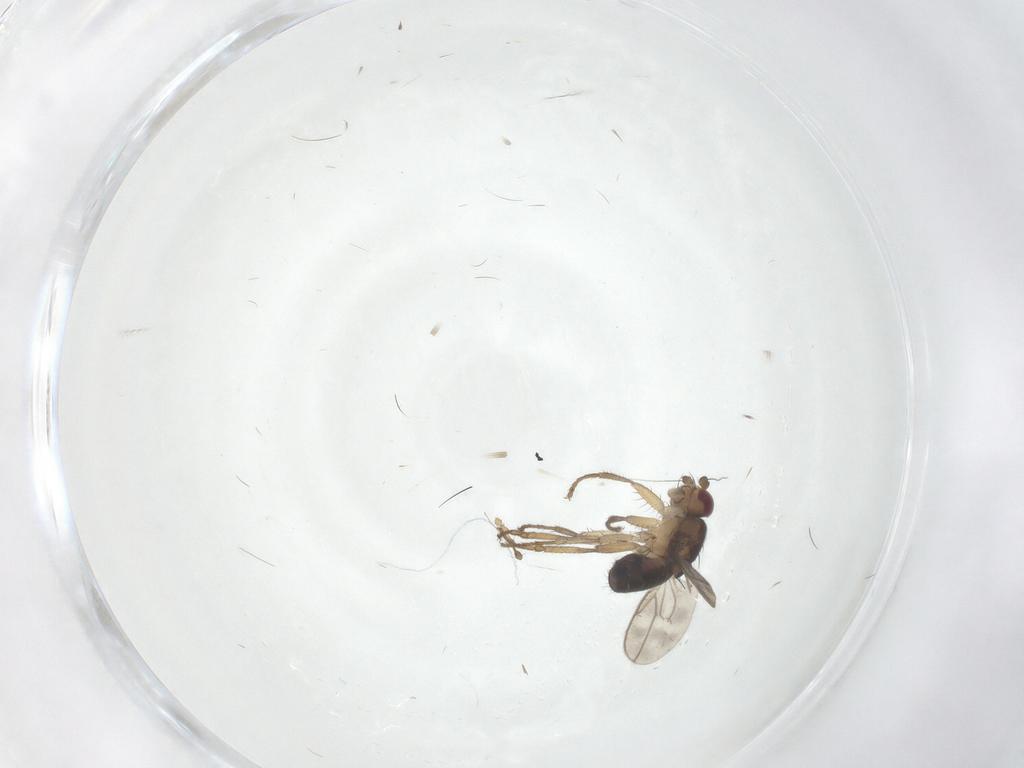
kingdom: Animalia
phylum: Arthropoda
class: Insecta
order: Diptera
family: Sphaeroceridae
